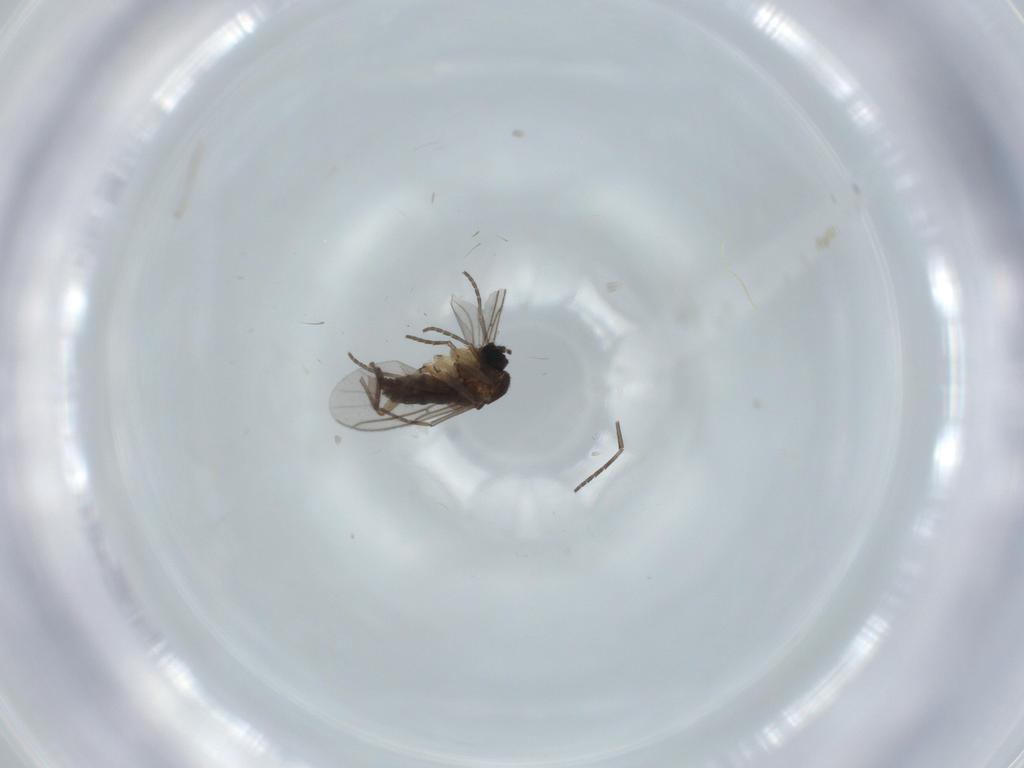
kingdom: Animalia
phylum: Arthropoda
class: Insecta
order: Diptera
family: Sciaridae
